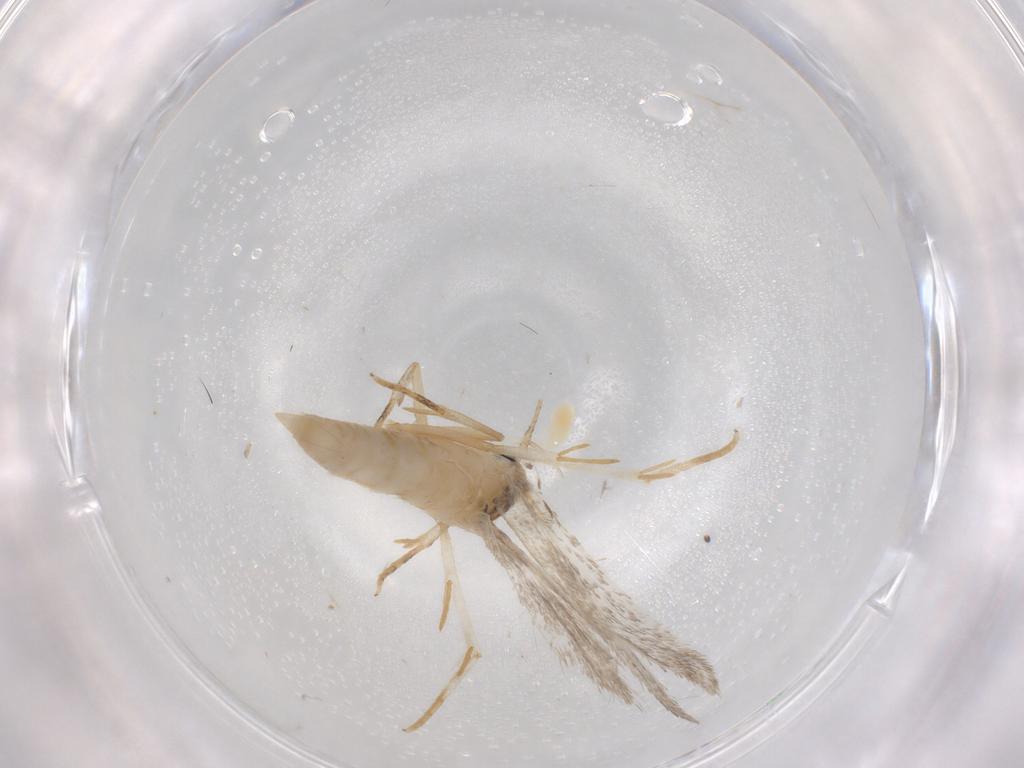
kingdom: Animalia
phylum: Arthropoda
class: Insecta
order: Lepidoptera
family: Autostichidae
